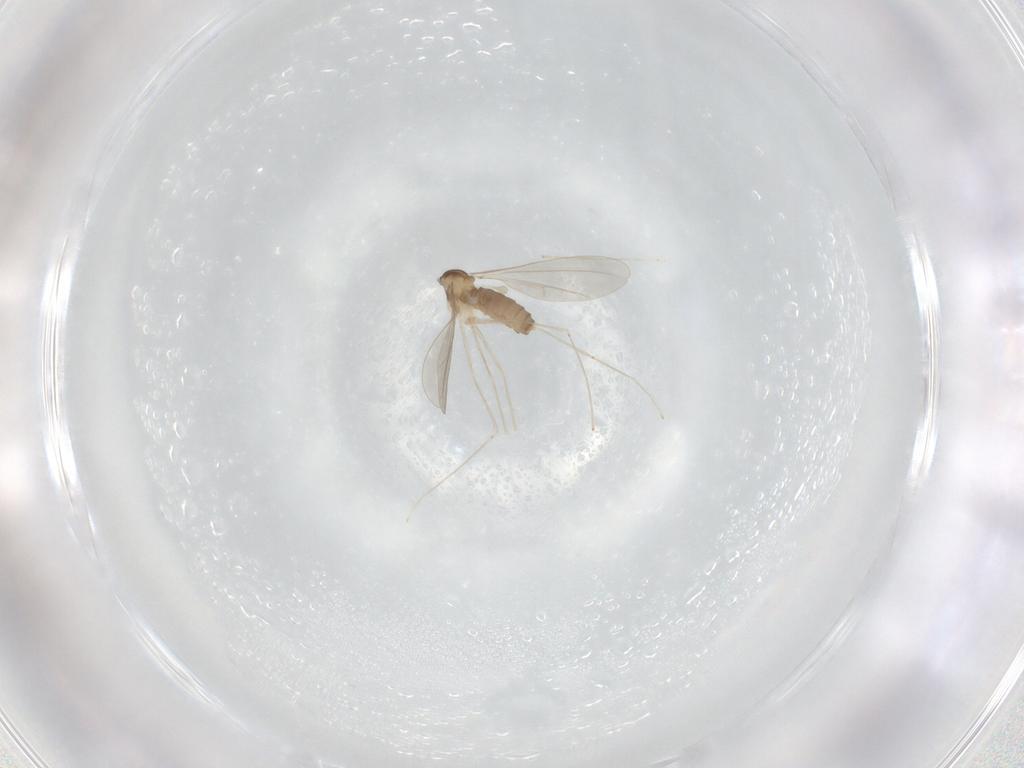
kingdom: Animalia
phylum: Arthropoda
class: Insecta
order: Diptera
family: Cecidomyiidae
